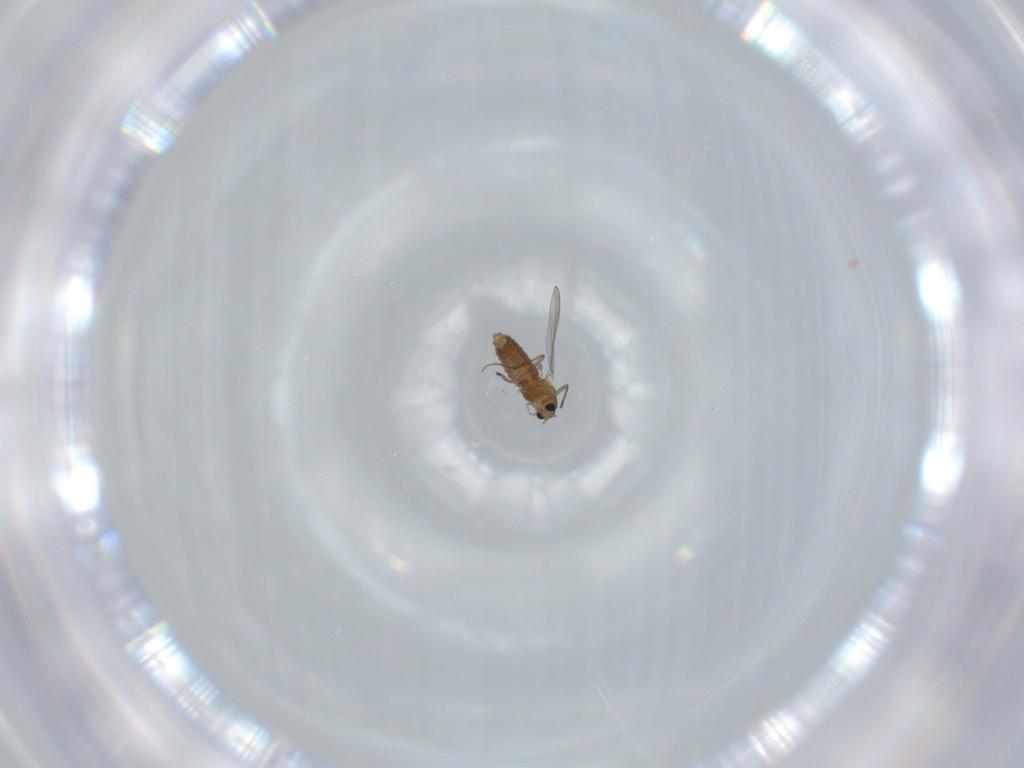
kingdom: Animalia
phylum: Arthropoda
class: Insecta
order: Diptera
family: Chironomidae
